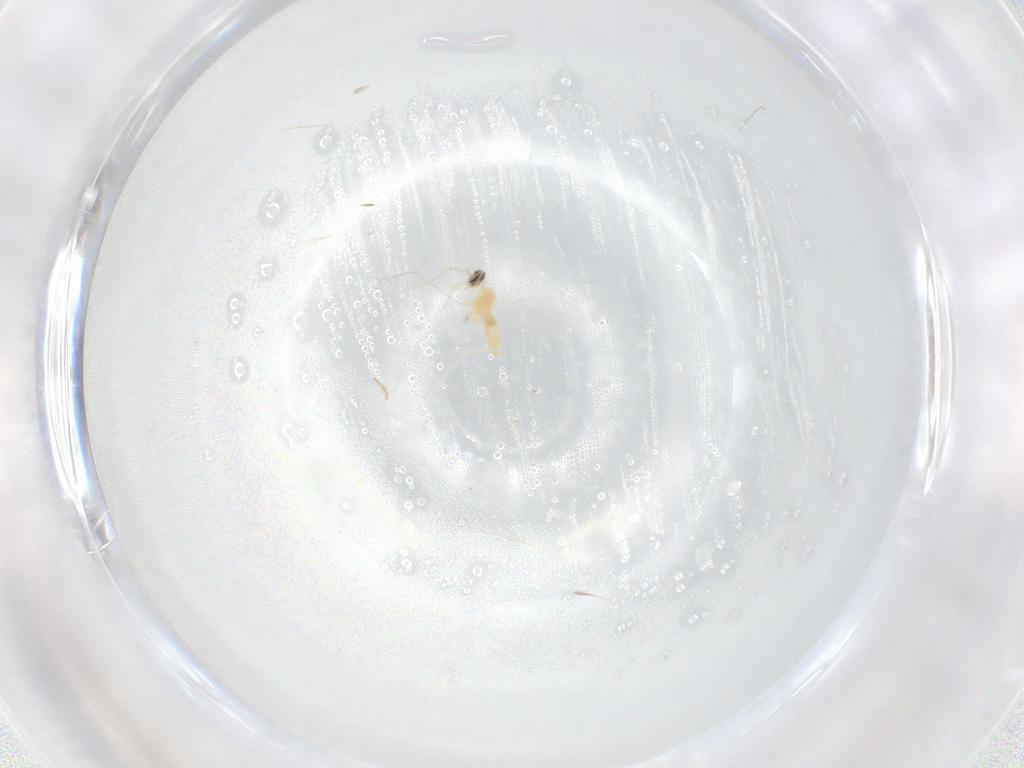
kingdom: Animalia
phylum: Arthropoda
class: Insecta
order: Diptera
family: Cecidomyiidae
